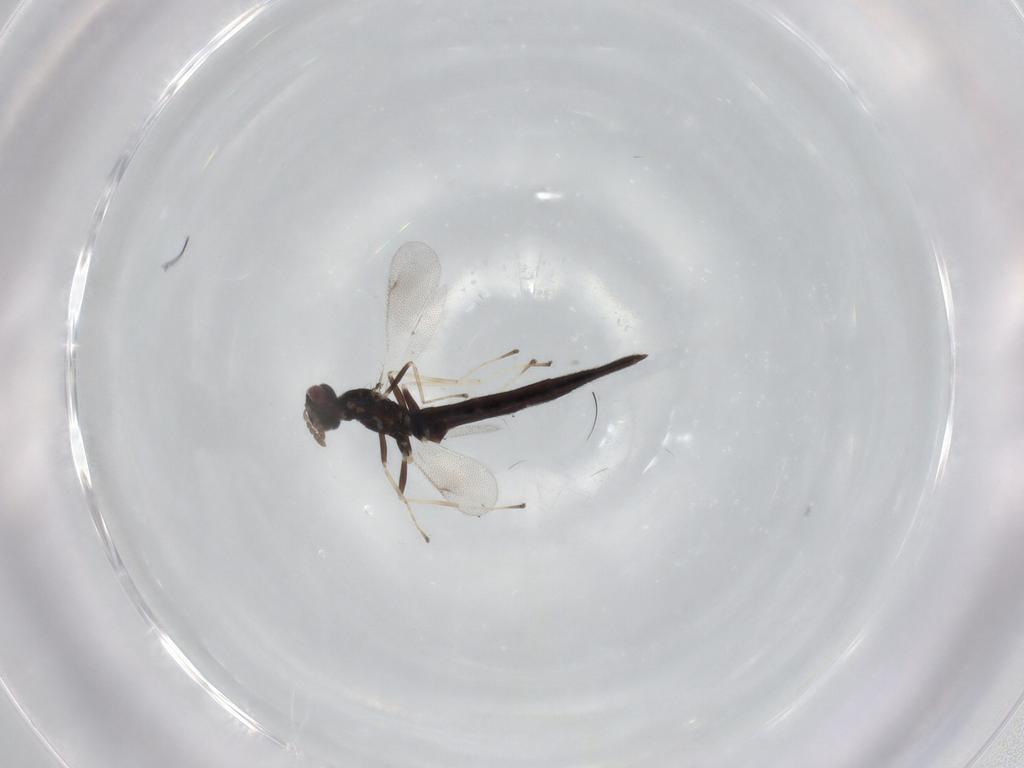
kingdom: Animalia
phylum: Arthropoda
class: Insecta
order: Hymenoptera
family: Eulophidae
